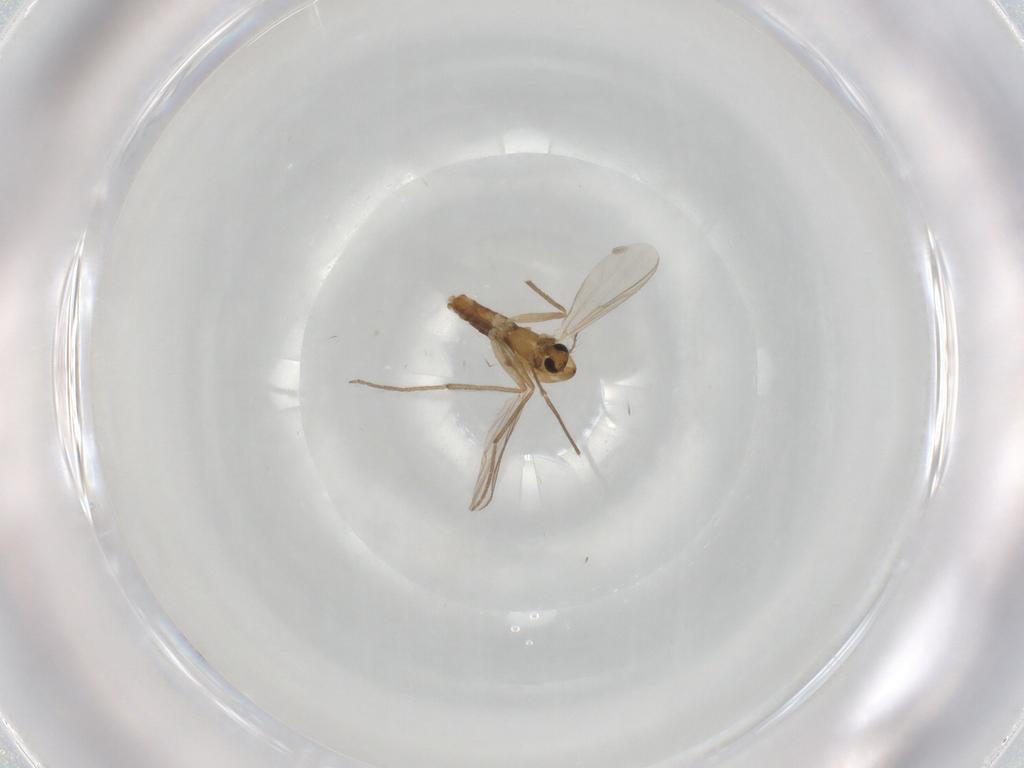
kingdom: Animalia
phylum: Arthropoda
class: Insecta
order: Diptera
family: Chironomidae
